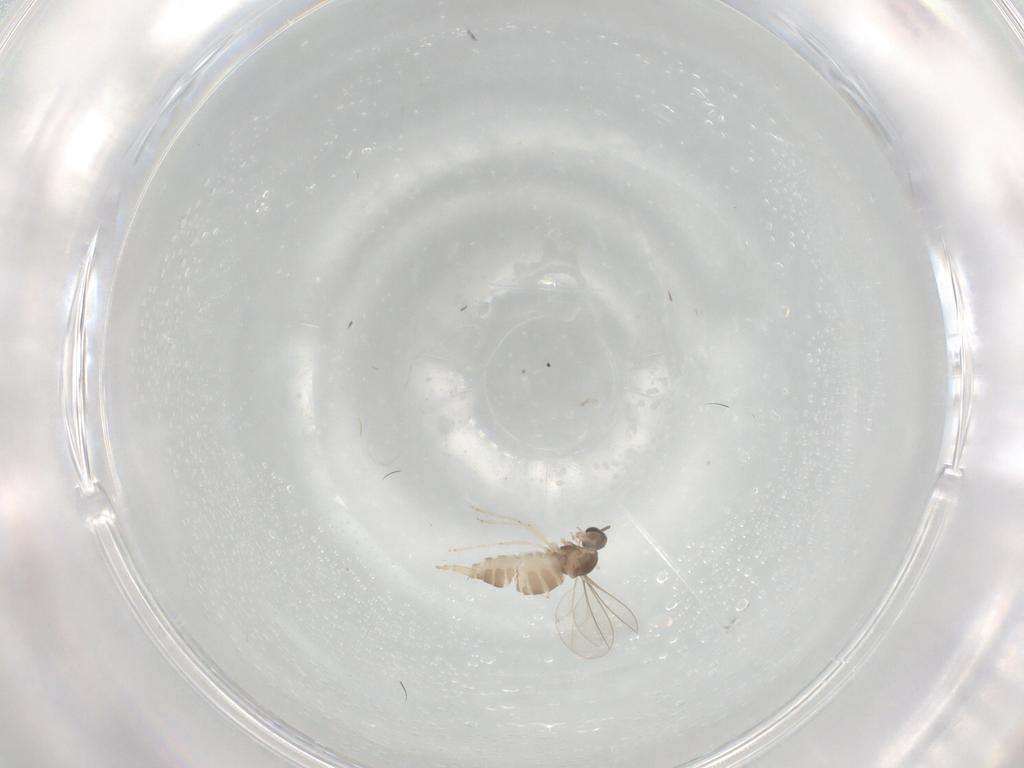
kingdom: Animalia
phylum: Arthropoda
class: Insecta
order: Diptera
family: Cecidomyiidae
